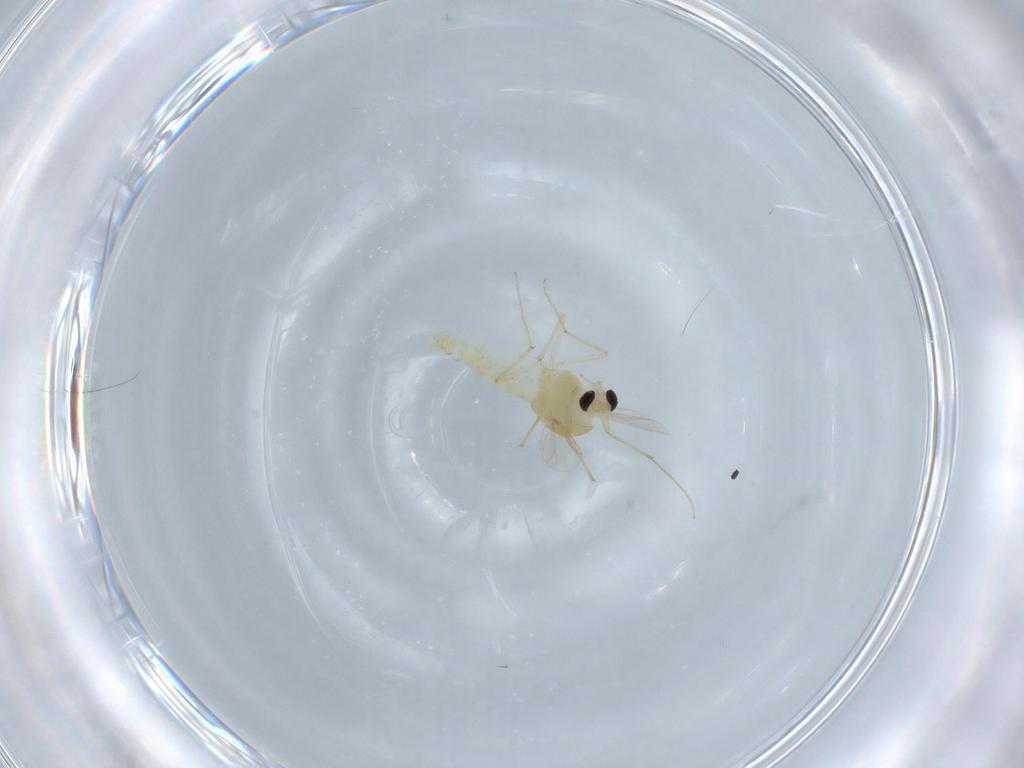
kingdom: Animalia
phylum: Arthropoda
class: Insecta
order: Diptera
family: Chironomidae
